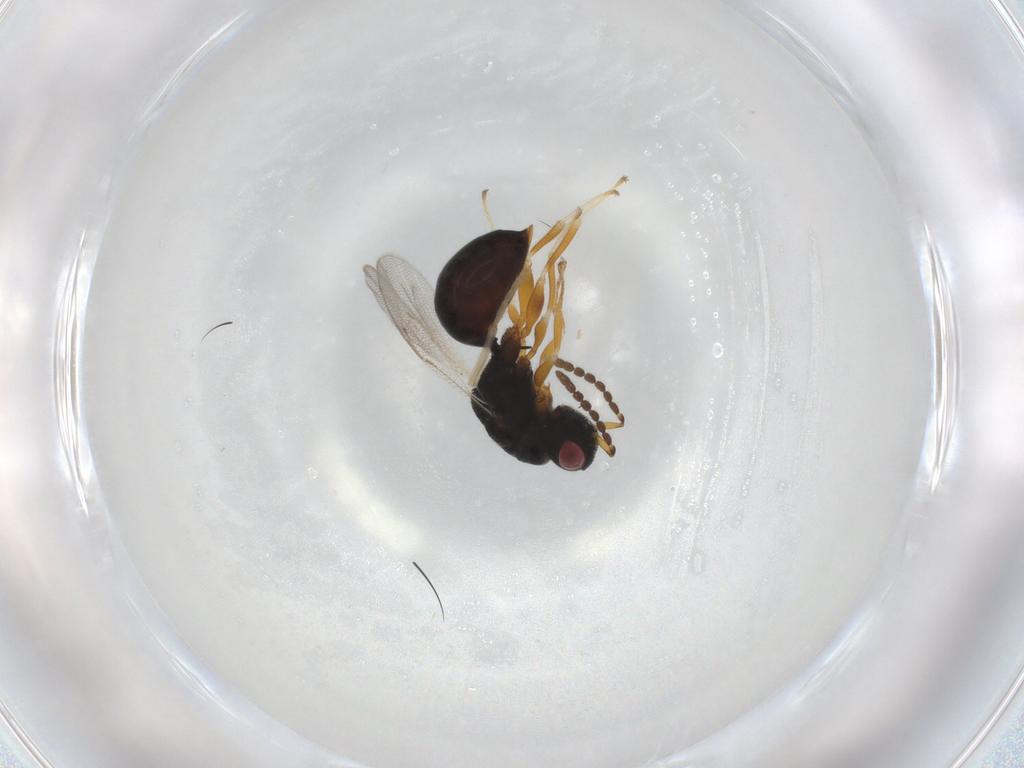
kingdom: Animalia
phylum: Arthropoda
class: Insecta
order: Hymenoptera
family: Eurytomidae
